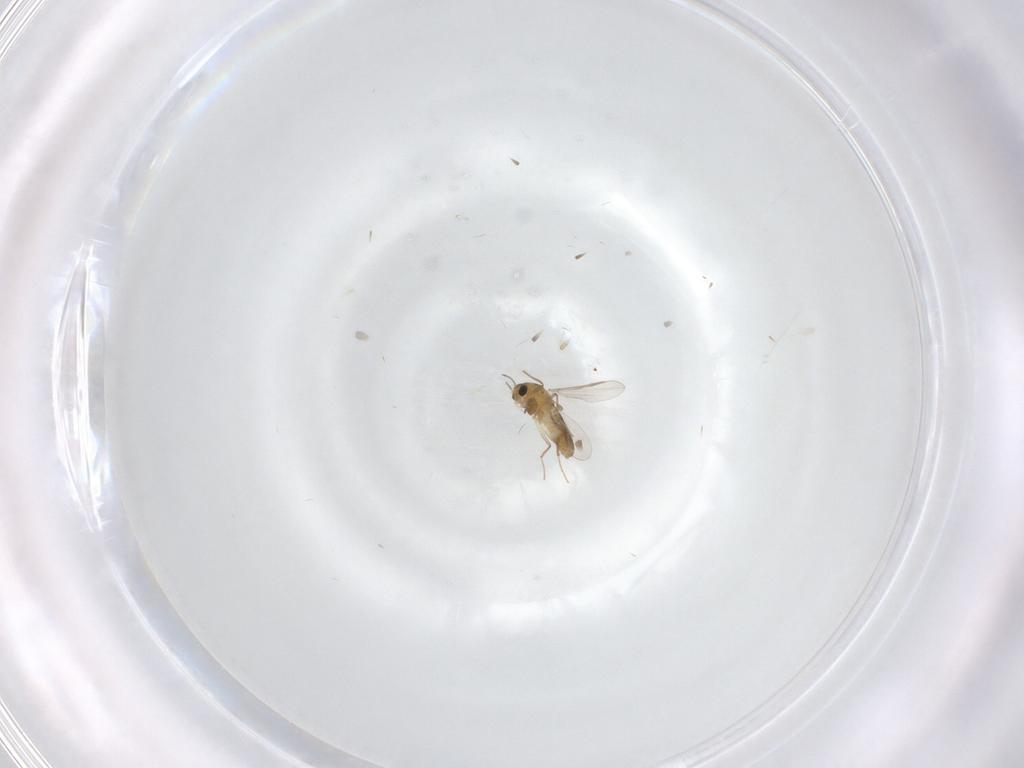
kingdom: Animalia
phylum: Arthropoda
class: Insecta
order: Diptera
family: Chironomidae
